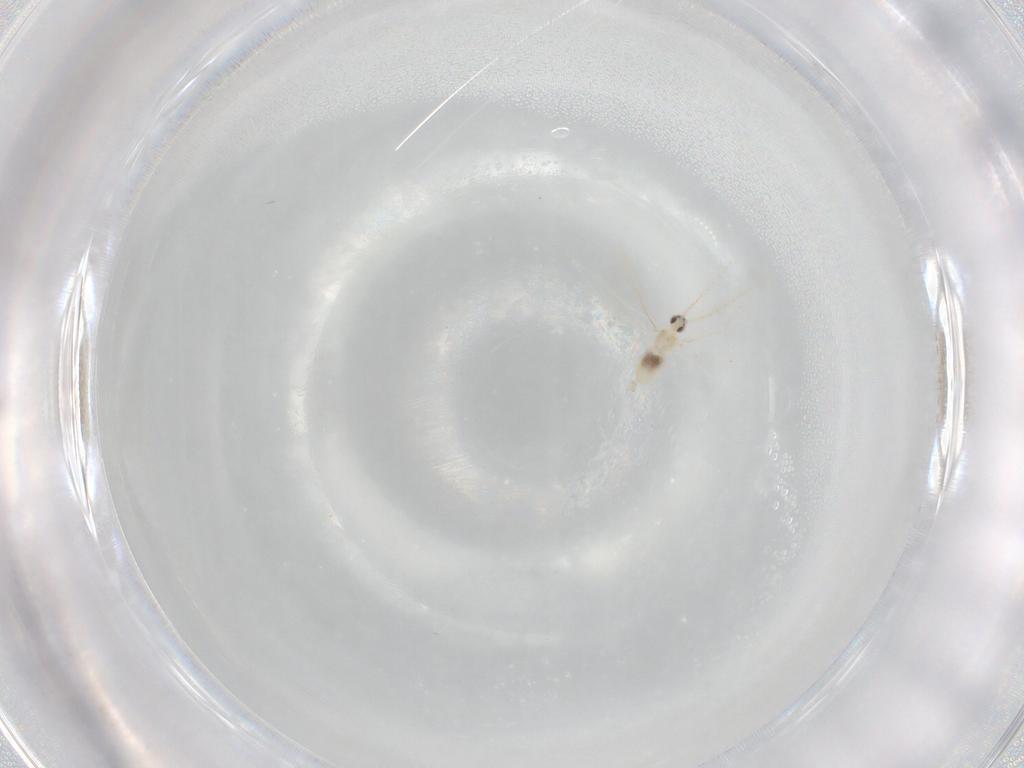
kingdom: Animalia
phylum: Arthropoda
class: Insecta
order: Diptera
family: Cecidomyiidae
